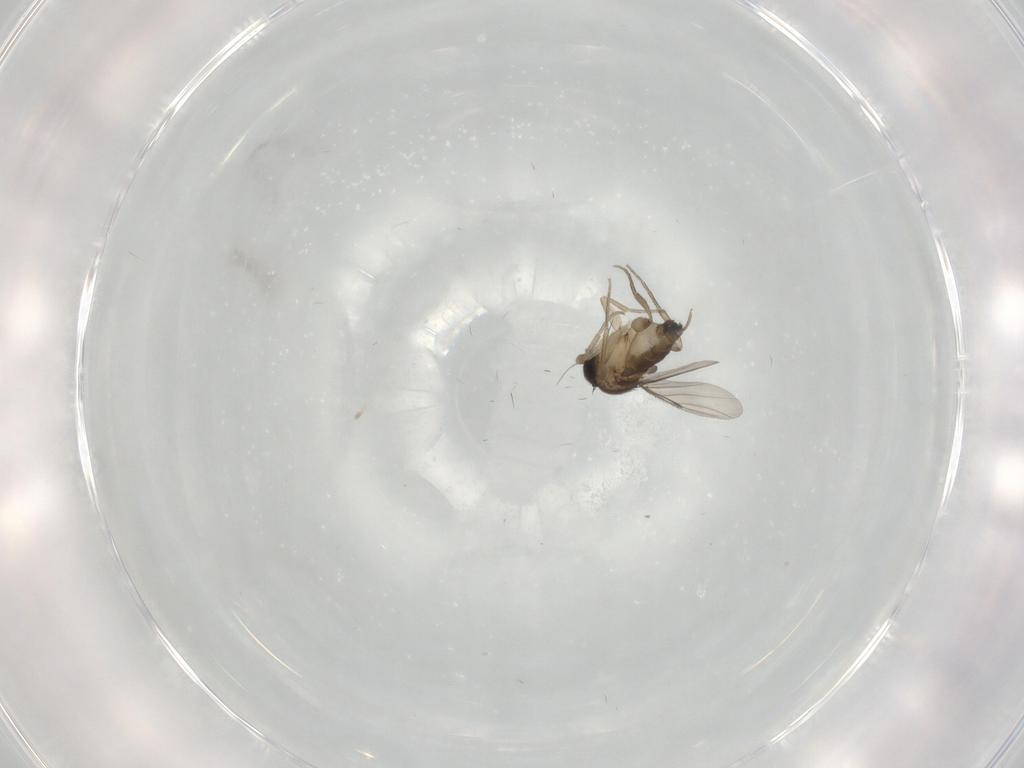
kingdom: Animalia
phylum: Arthropoda
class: Insecta
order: Diptera
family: Phoridae
